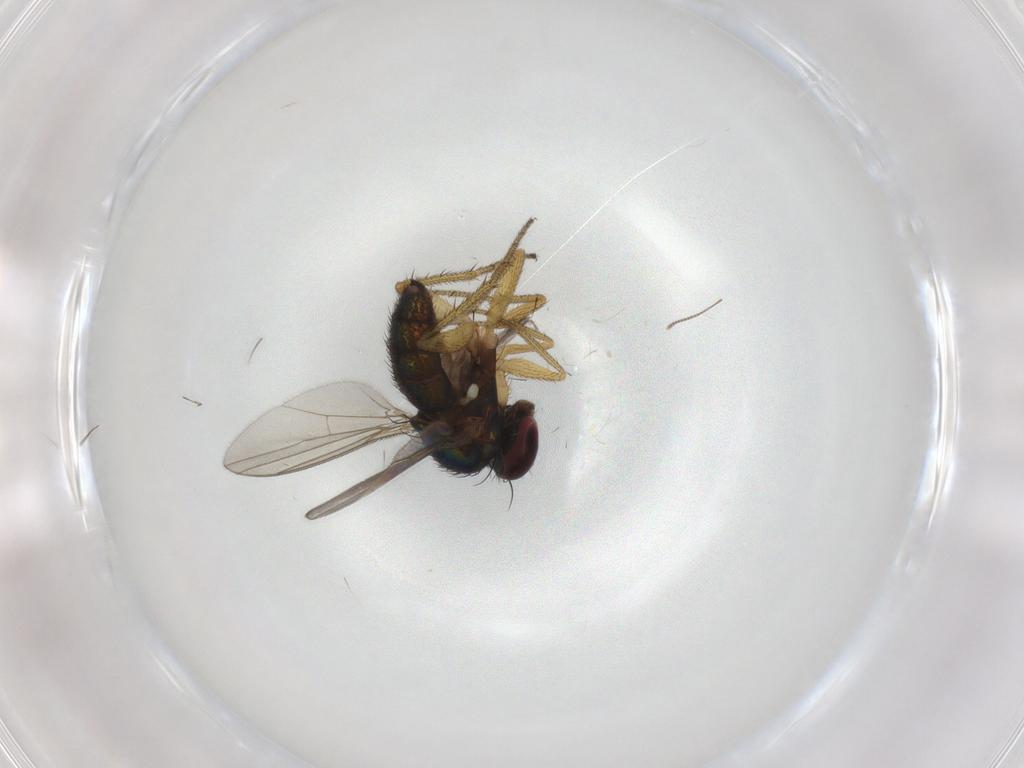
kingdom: Animalia
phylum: Arthropoda
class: Insecta
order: Diptera
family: Dolichopodidae
